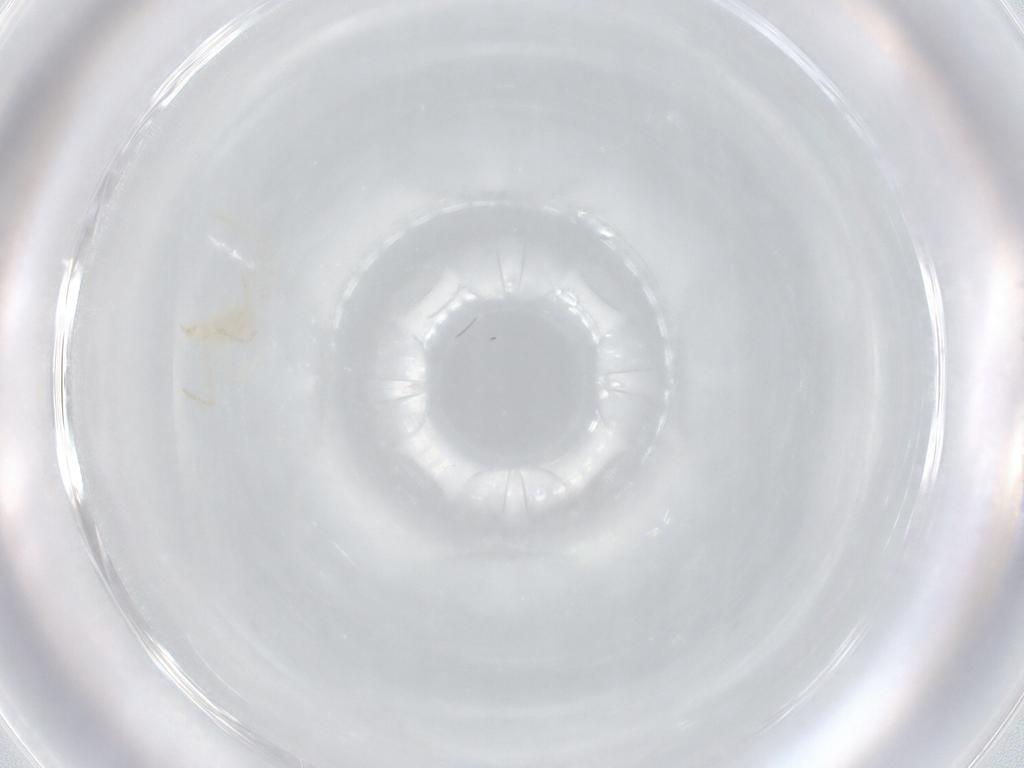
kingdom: Animalia
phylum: Arthropoda
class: Arachnida
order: Trombidiformes
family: Erythraeidae
